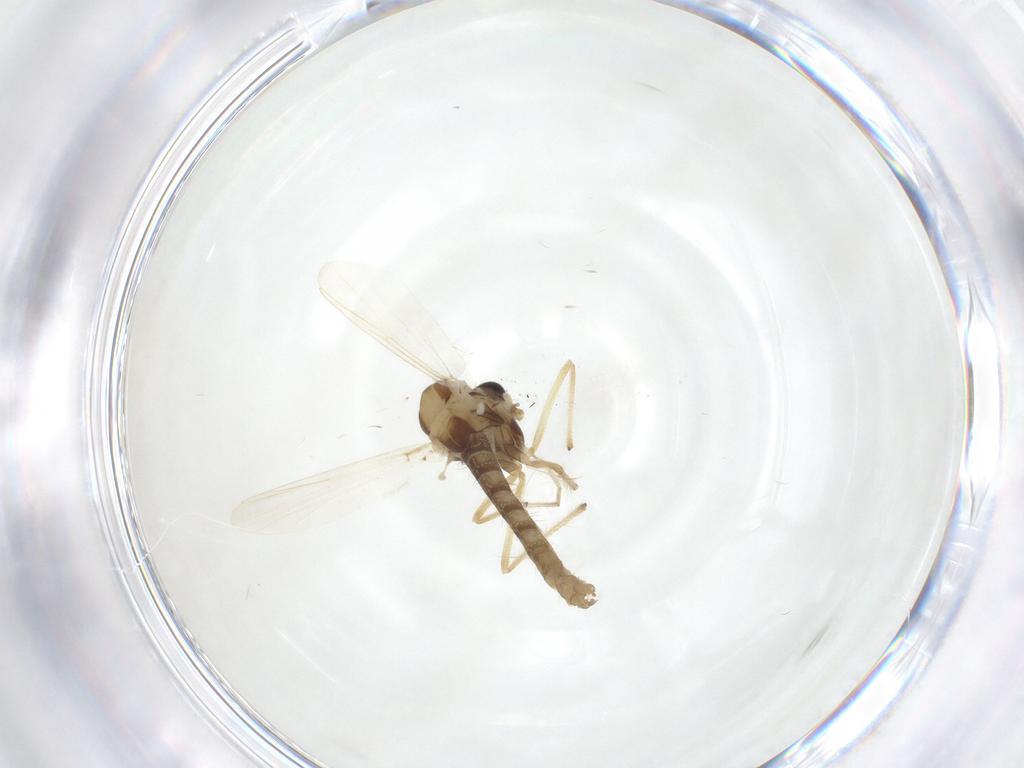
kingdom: Animalia
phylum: Arthropoda
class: Insecta
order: Diptera
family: Chironomidae
